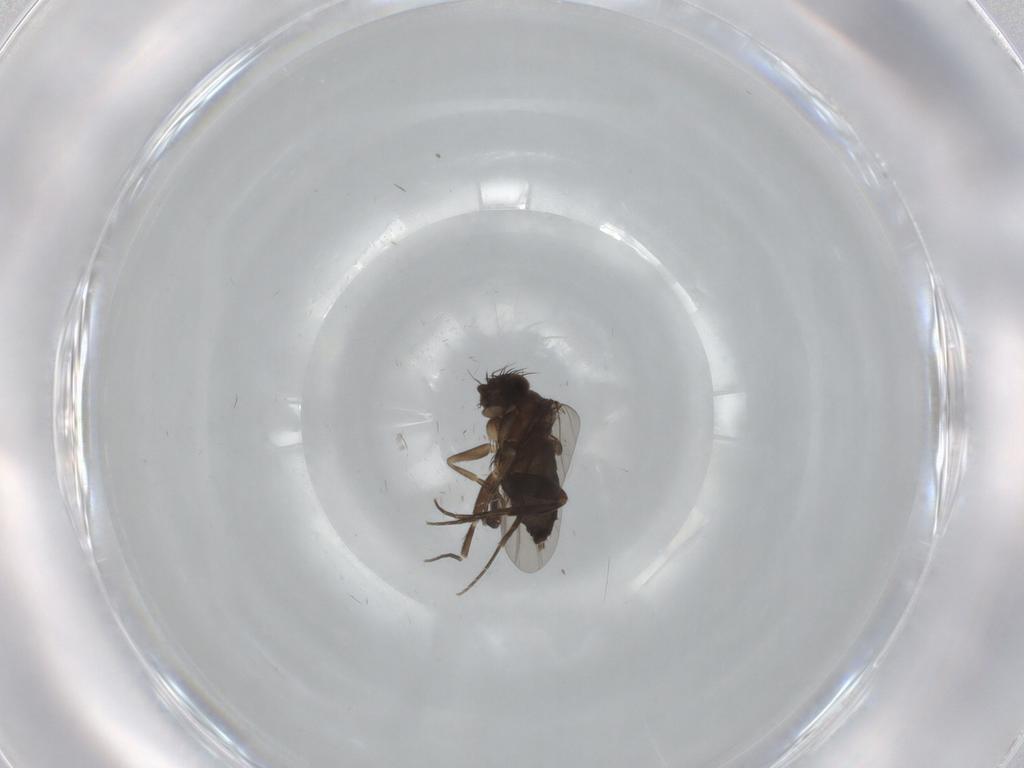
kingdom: Animalia
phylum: Arthropoda
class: Insecta
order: Diptera
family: Phoridae
